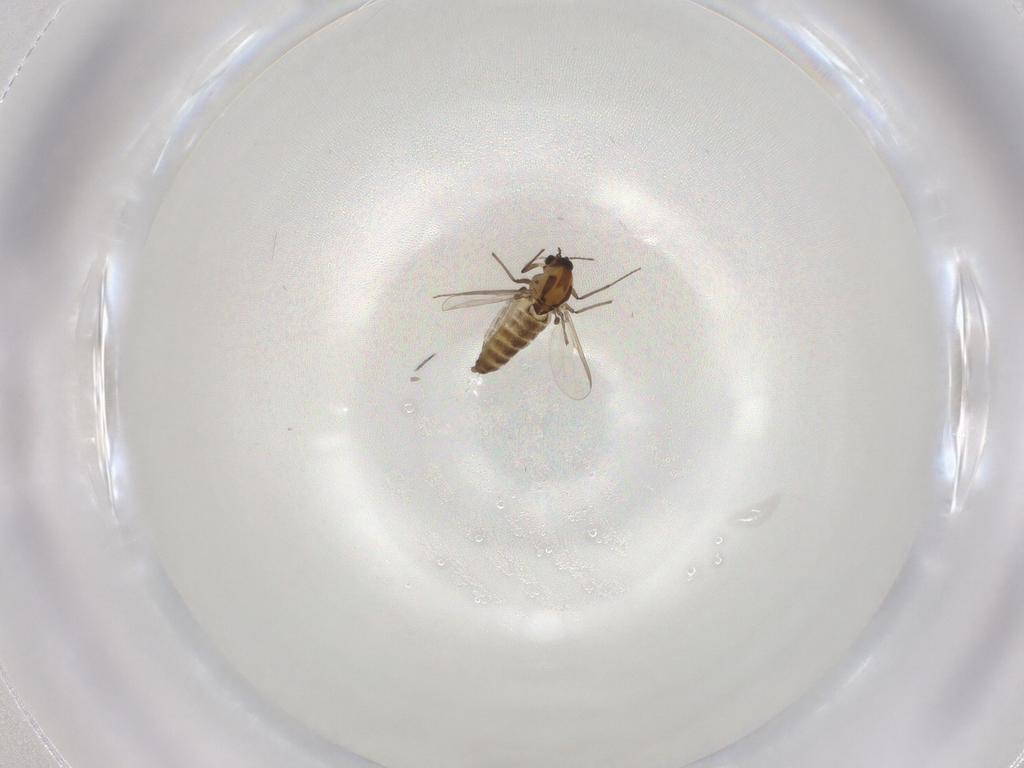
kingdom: Animalia
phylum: Arthropoda
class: Insecta
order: Diptera
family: Chironomidae
